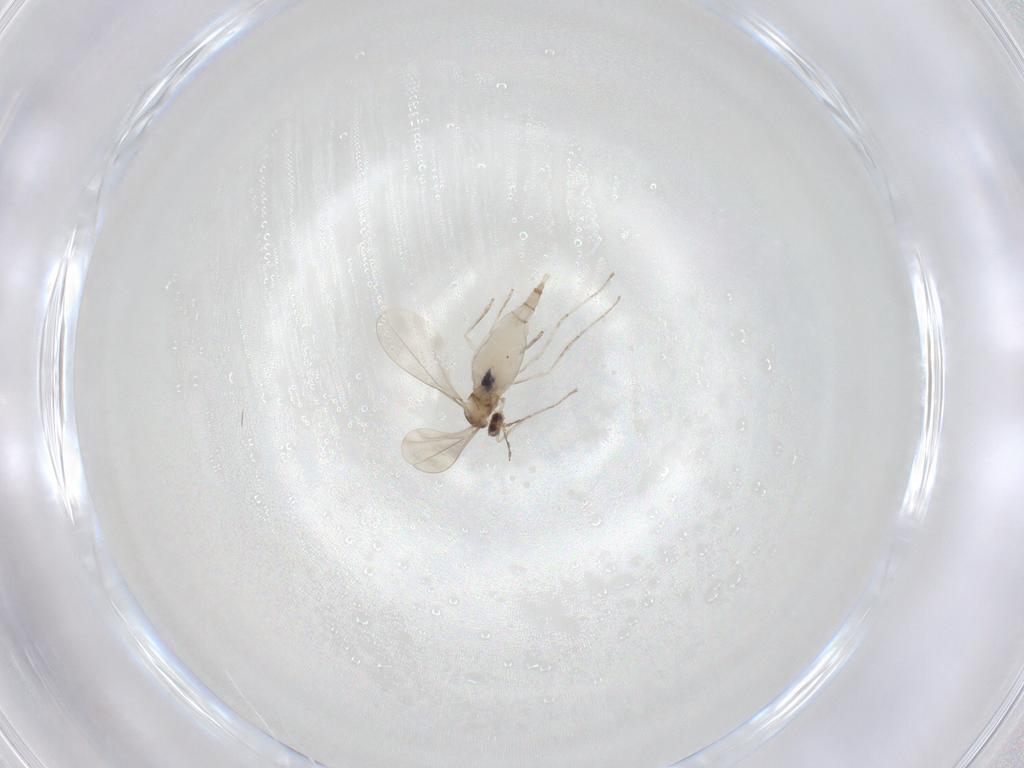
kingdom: Animalia
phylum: Arthropoda
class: Insecta
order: Diptera
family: Cecidomyiidae
